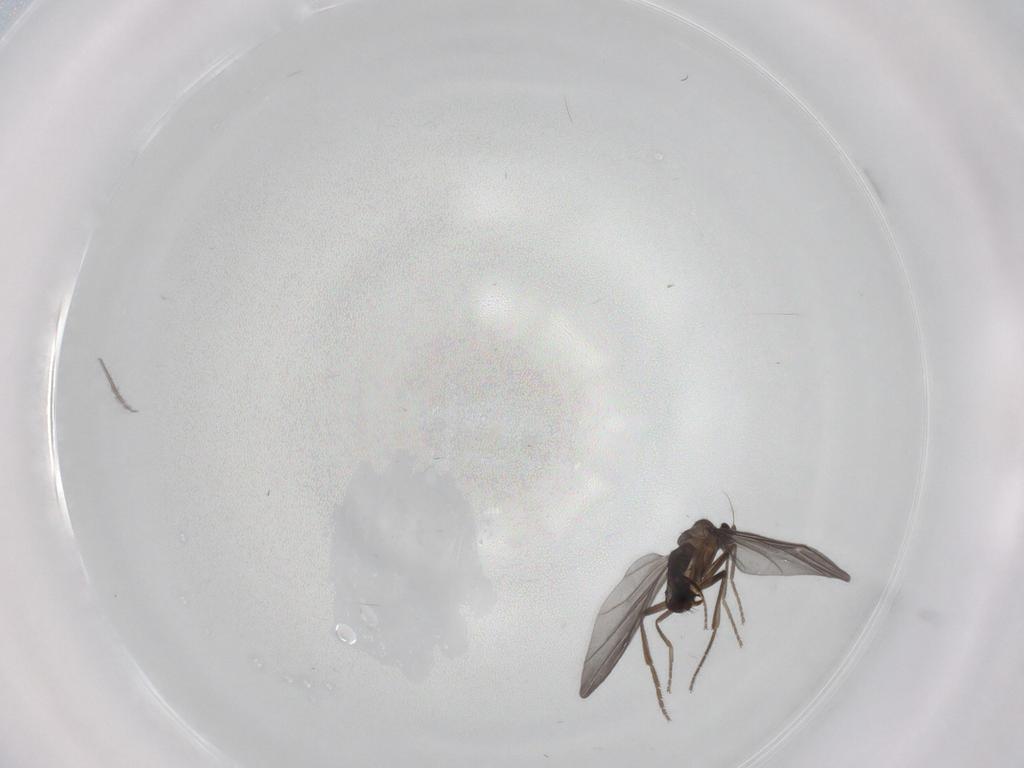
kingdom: Animalia
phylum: Arthropoda
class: Insecta
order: Diptera
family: Phoridae
